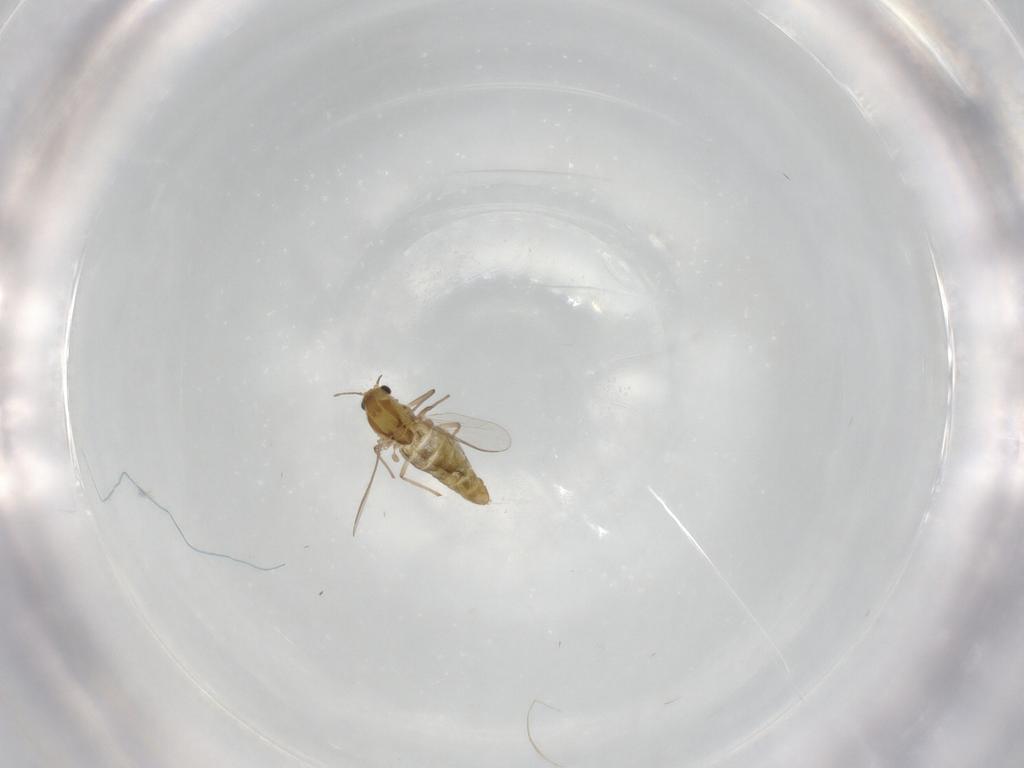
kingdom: Animalia
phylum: Arthropoda
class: Insecta
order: Diptera
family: Chironomidae
